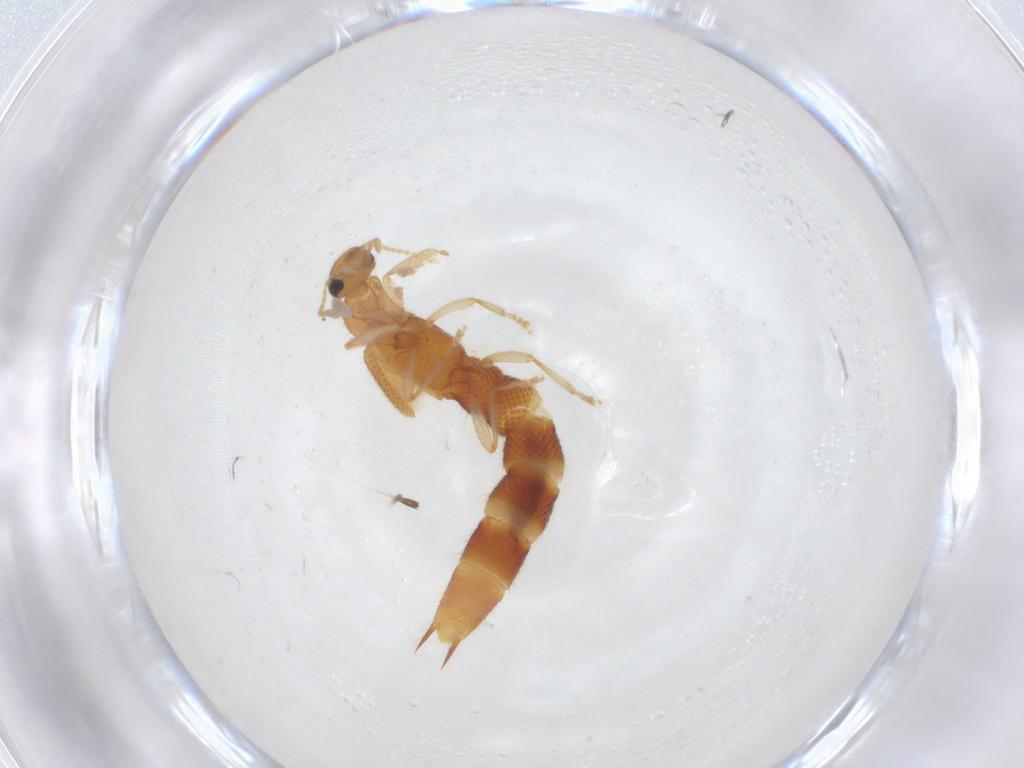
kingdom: Animalia
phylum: Arthropoda
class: Insecta
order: Coleoptera
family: Staphylinidae
